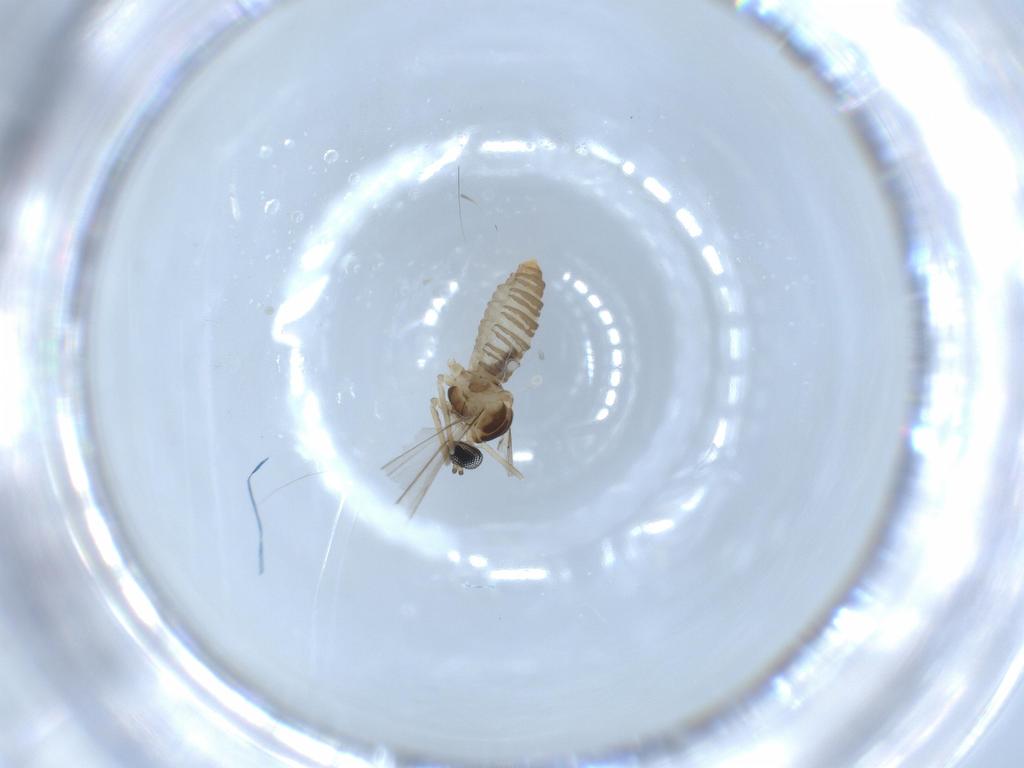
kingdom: Animalia
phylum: Arthropoda
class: Insecta
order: Diptera
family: Cecidomyiidae
